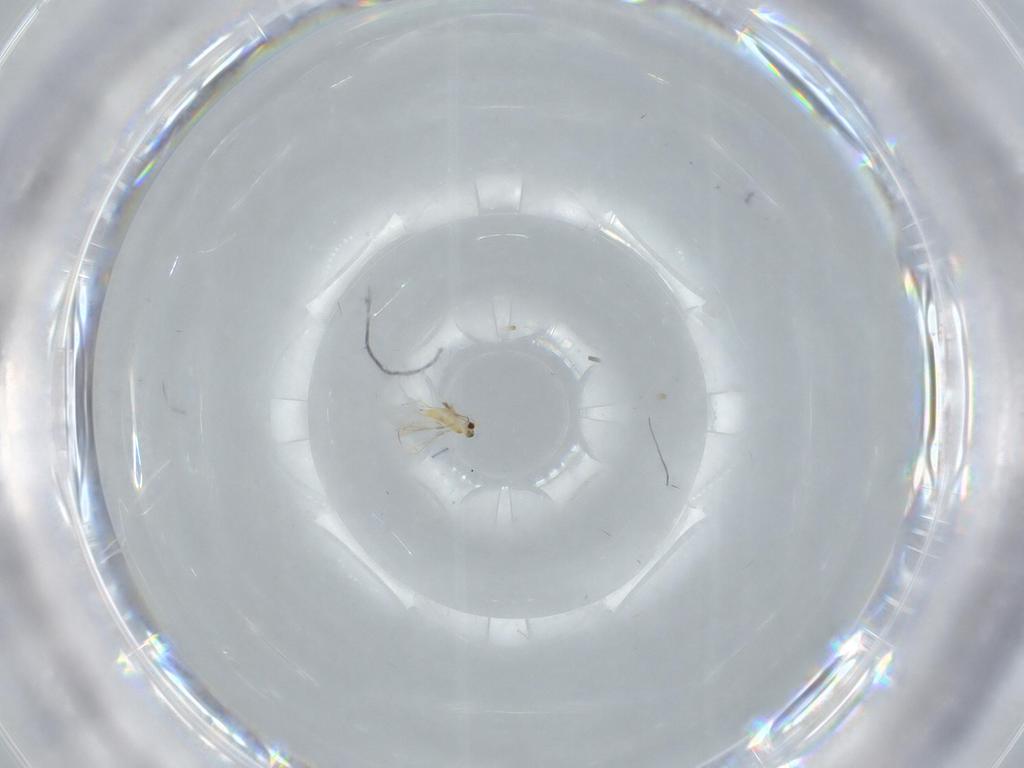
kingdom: Animalia
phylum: Arthropoda
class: Insecta
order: Hymenoptera
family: Mymaridae
